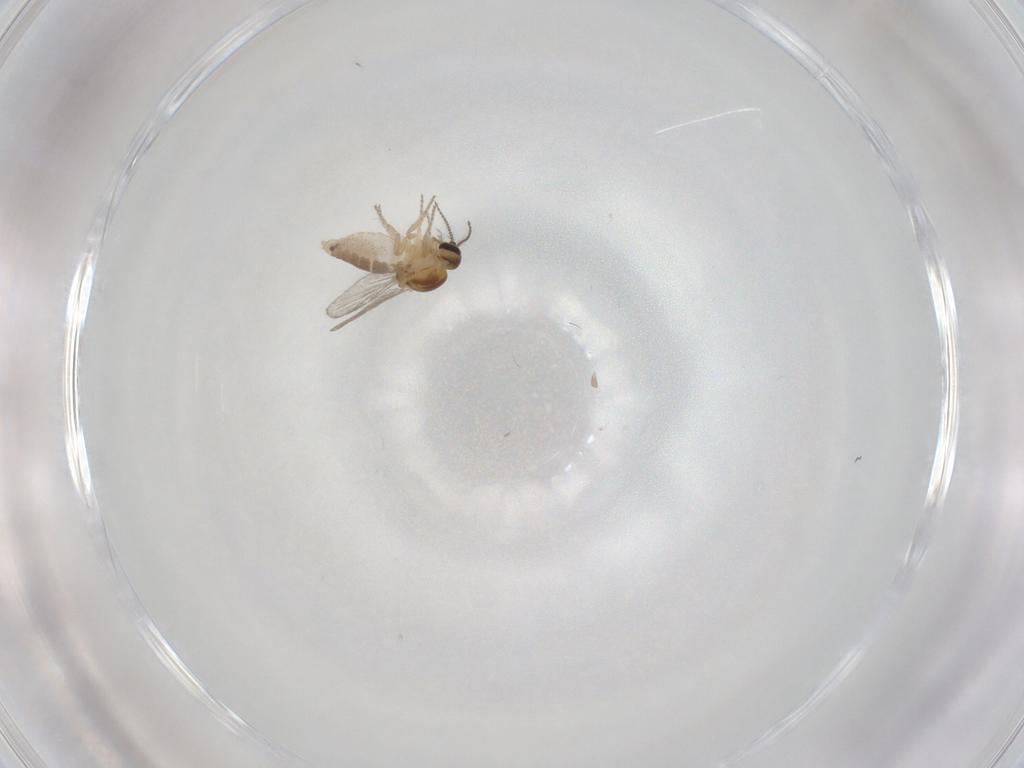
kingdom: Animalia
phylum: Arthropoda
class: Insecta
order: Diptera
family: Ceratopogonidae
